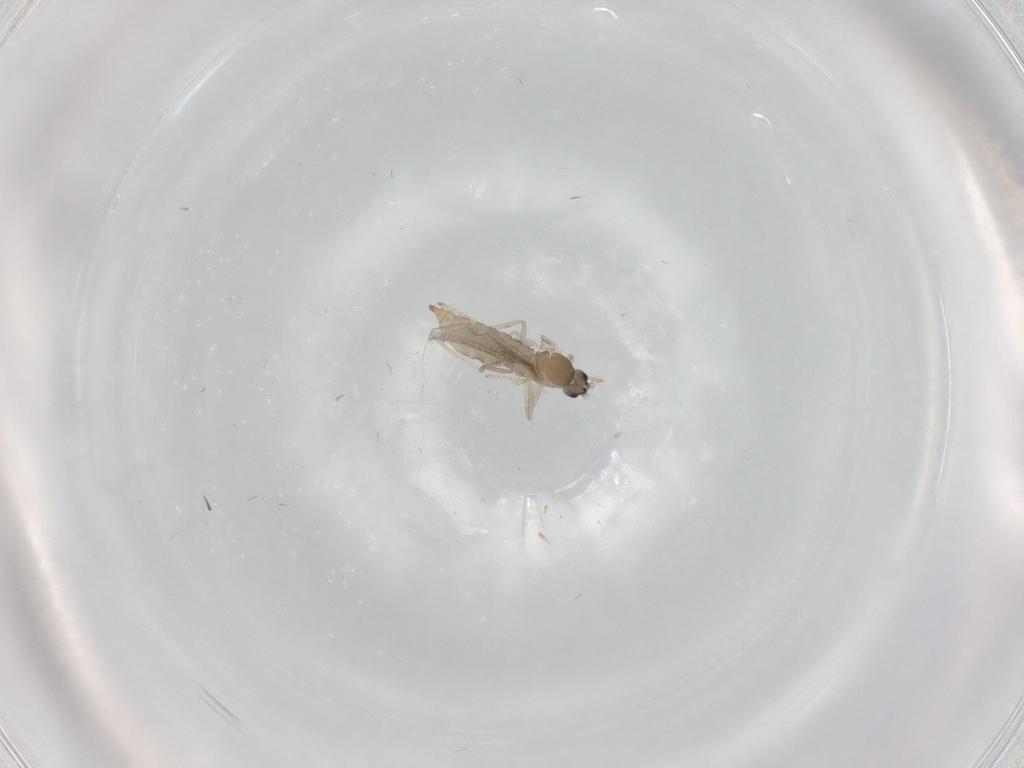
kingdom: Animalia
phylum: Arthropoda
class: Insecta
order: Diptera
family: Cecidomyiidae
